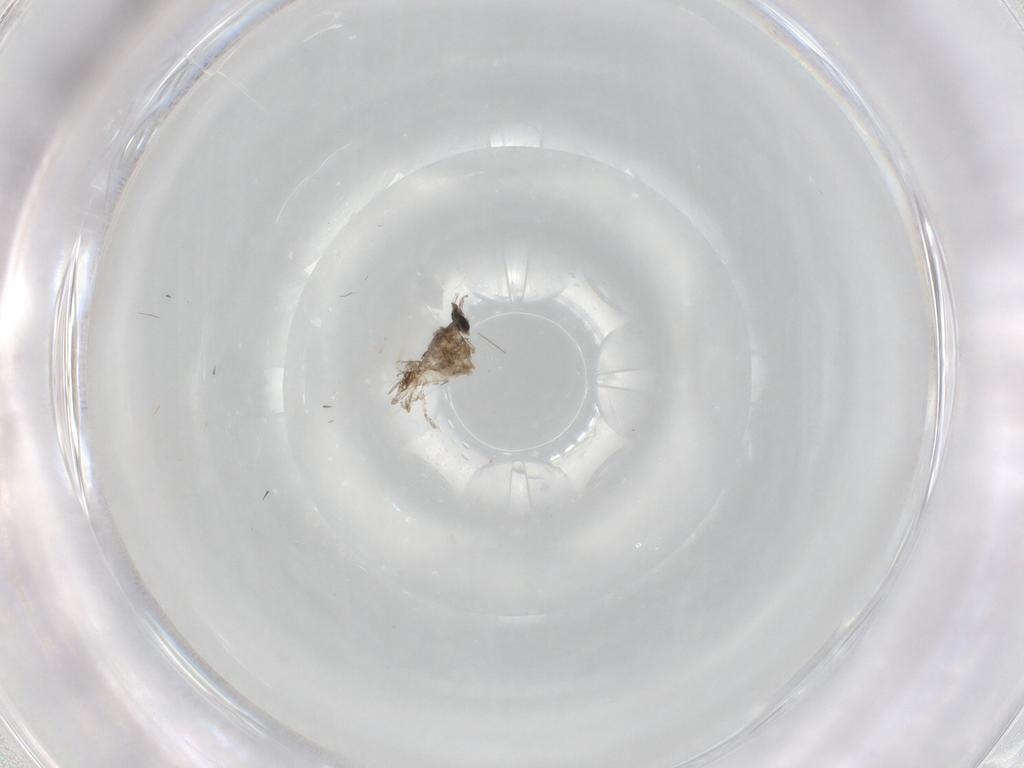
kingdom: Animalia
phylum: Arthropoda
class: Insecta
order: Diptera
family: Cecidomyiidae
